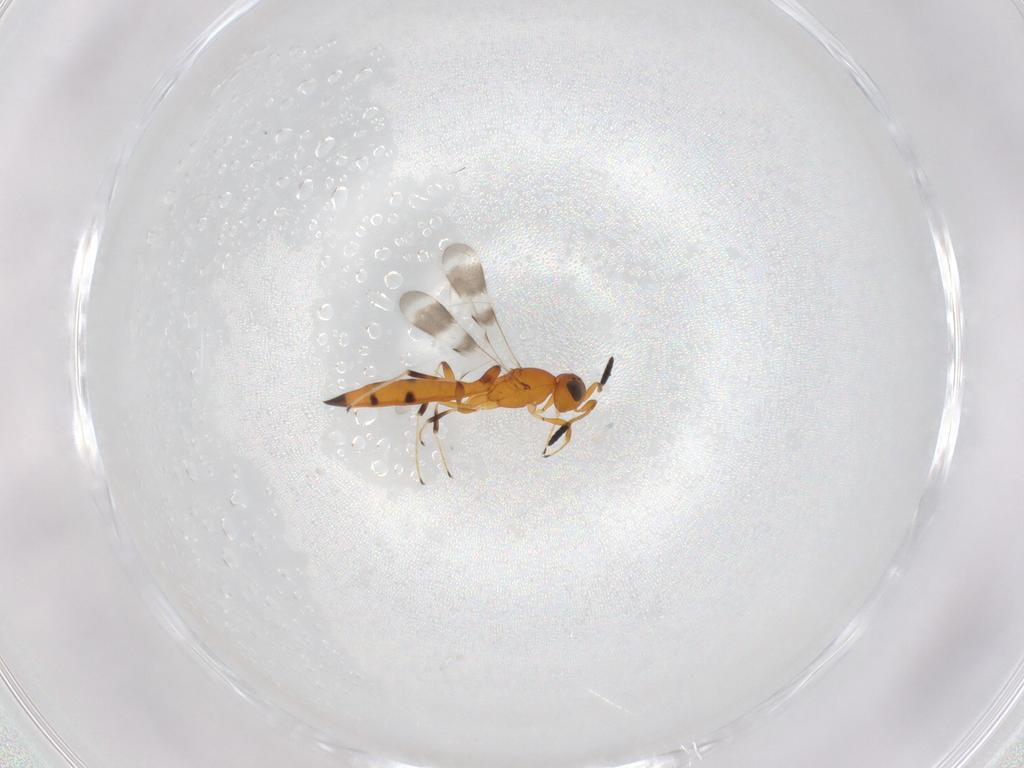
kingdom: Animalia
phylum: Arthropoda
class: Insecta
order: Hymenoptera
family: Scelionidae
